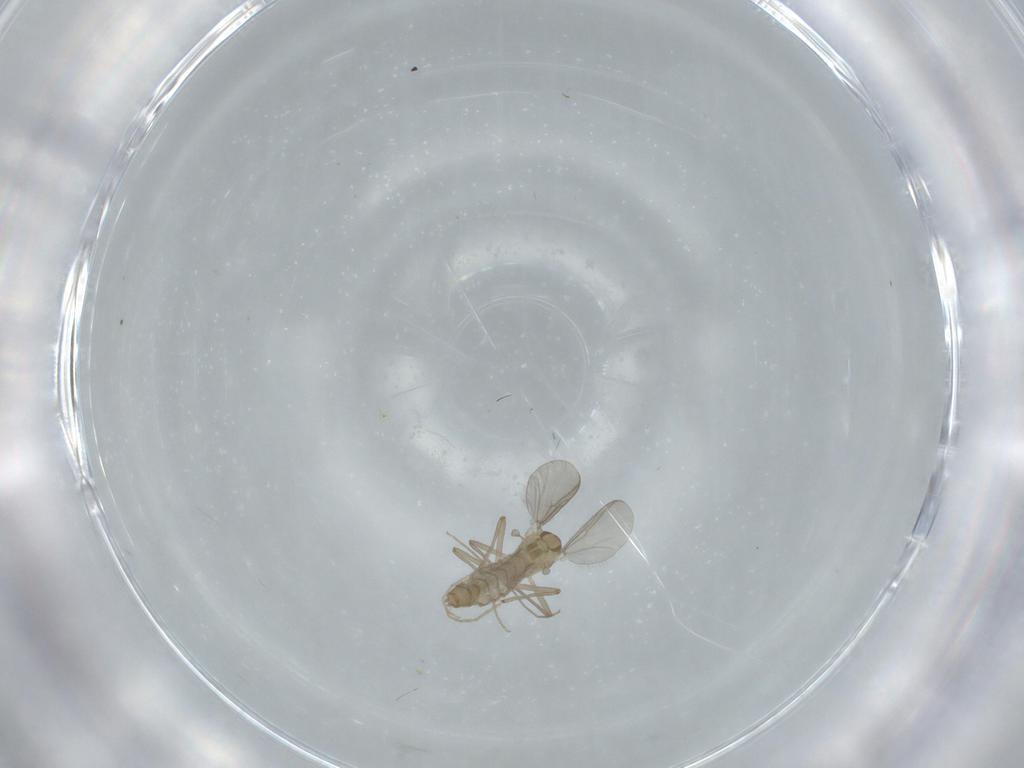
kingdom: Animalia
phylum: Arthropoda
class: Insecta
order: Diptera
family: Chironomidae
